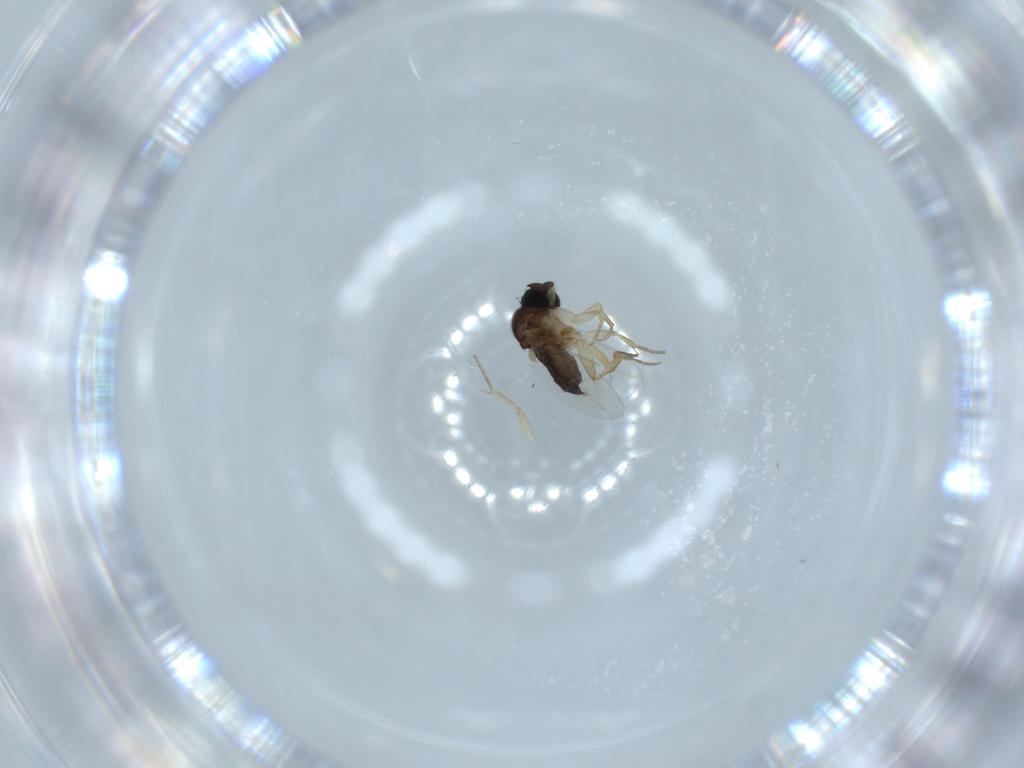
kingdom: Animalia
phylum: Arthropoda
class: Insecta
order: Diptera
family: Phoridae
